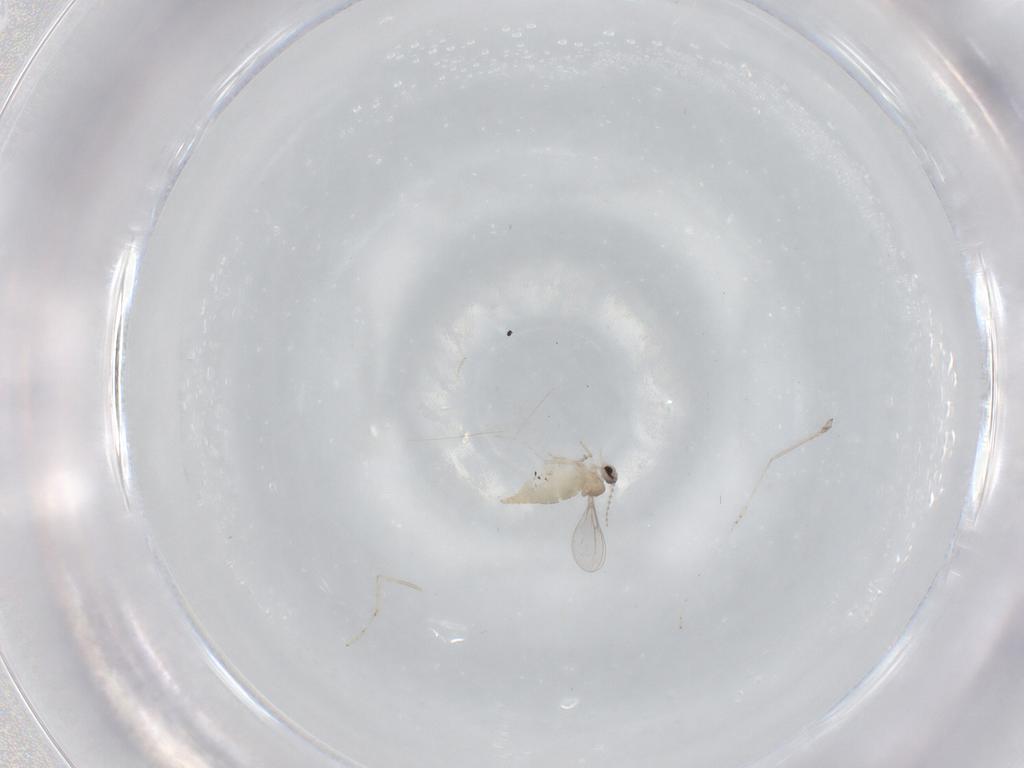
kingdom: Animalia
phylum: Arthropoda
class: Insecta
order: Diptera
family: Cecidomyiidae
